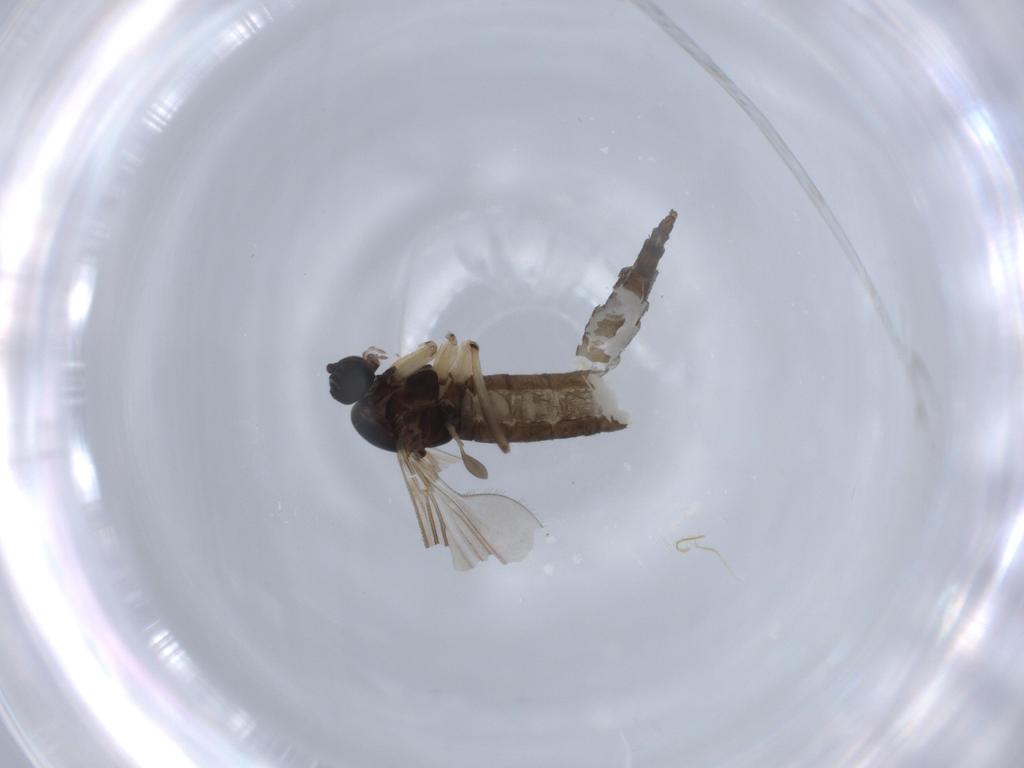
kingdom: Animalia
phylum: Arthropoda
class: Insecta
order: Diptera
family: Sciaridae
